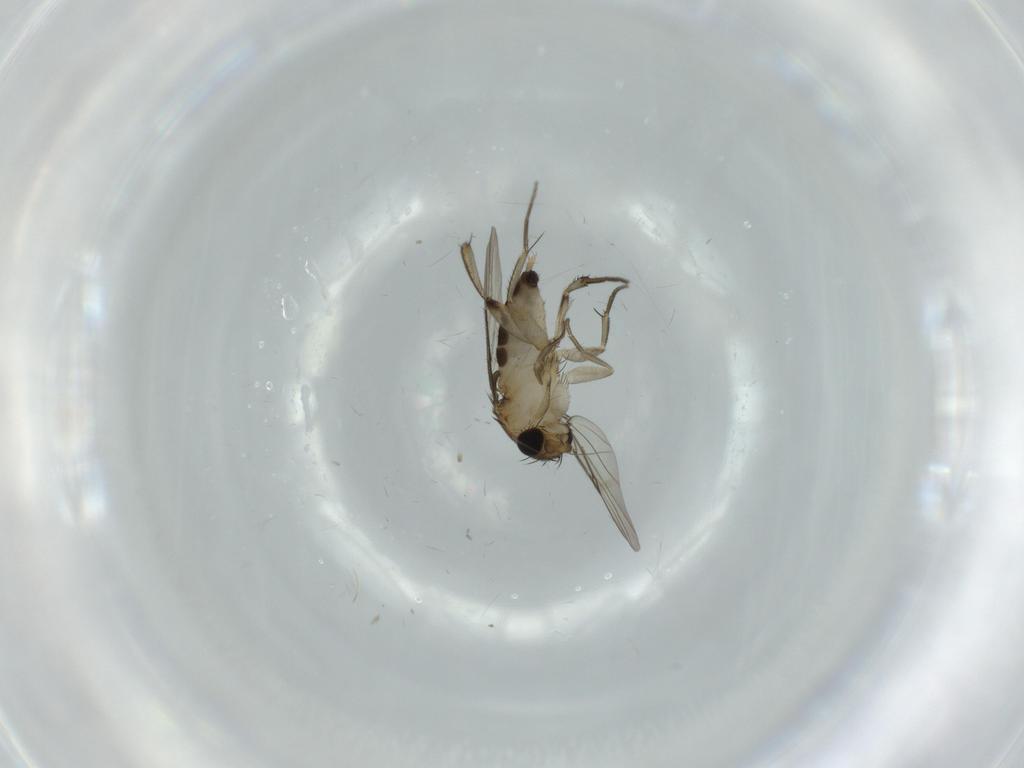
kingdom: Animalia
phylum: Arthropoda
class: Insecta
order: Diptera
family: Phoridae
